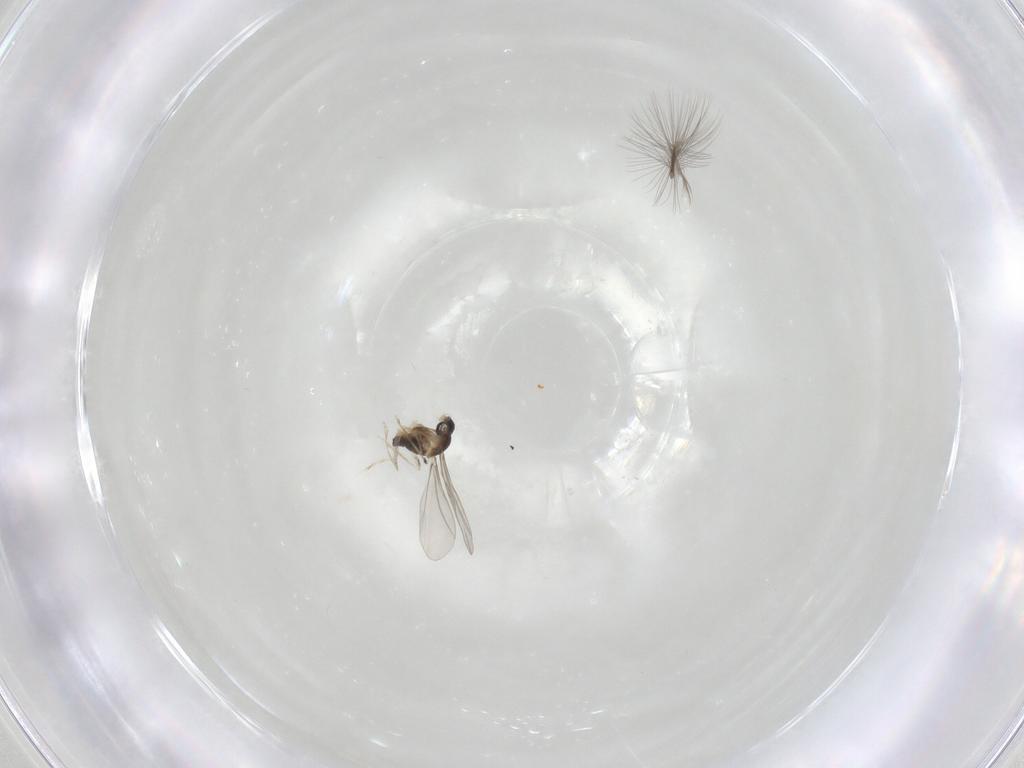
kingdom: Animalia
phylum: Arthropoda
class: Insecta
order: Diptera
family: Cecidomyiidae
